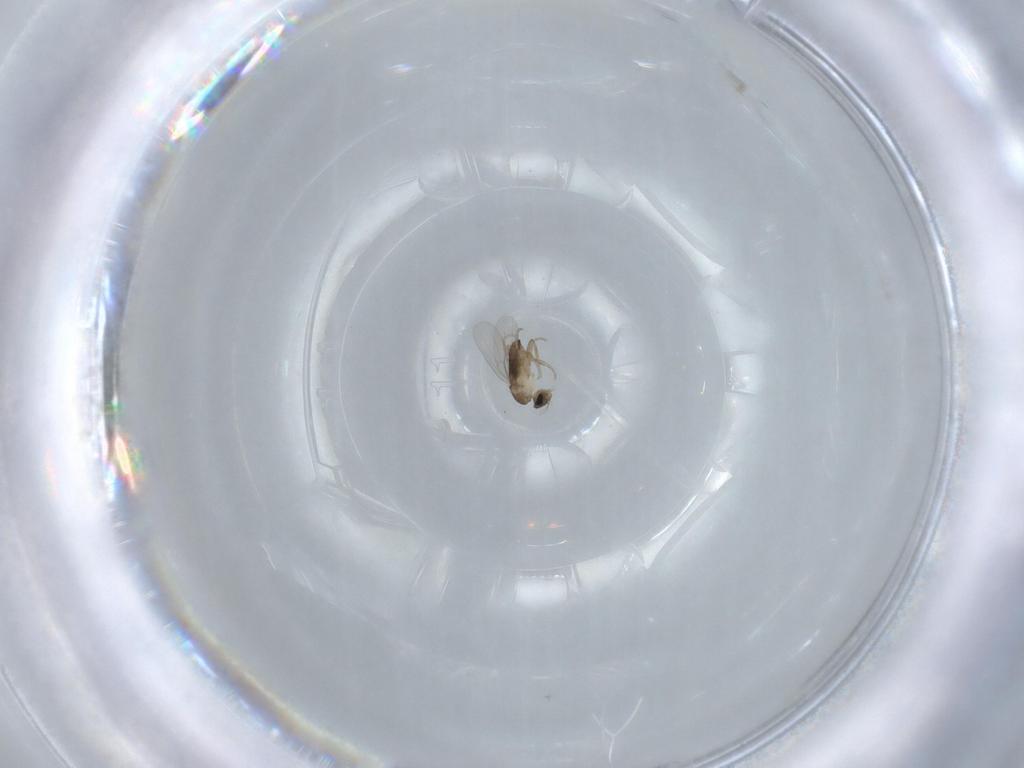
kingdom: Animalia
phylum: Arthropoda
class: Insecta
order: Diptera
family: Phoridae
